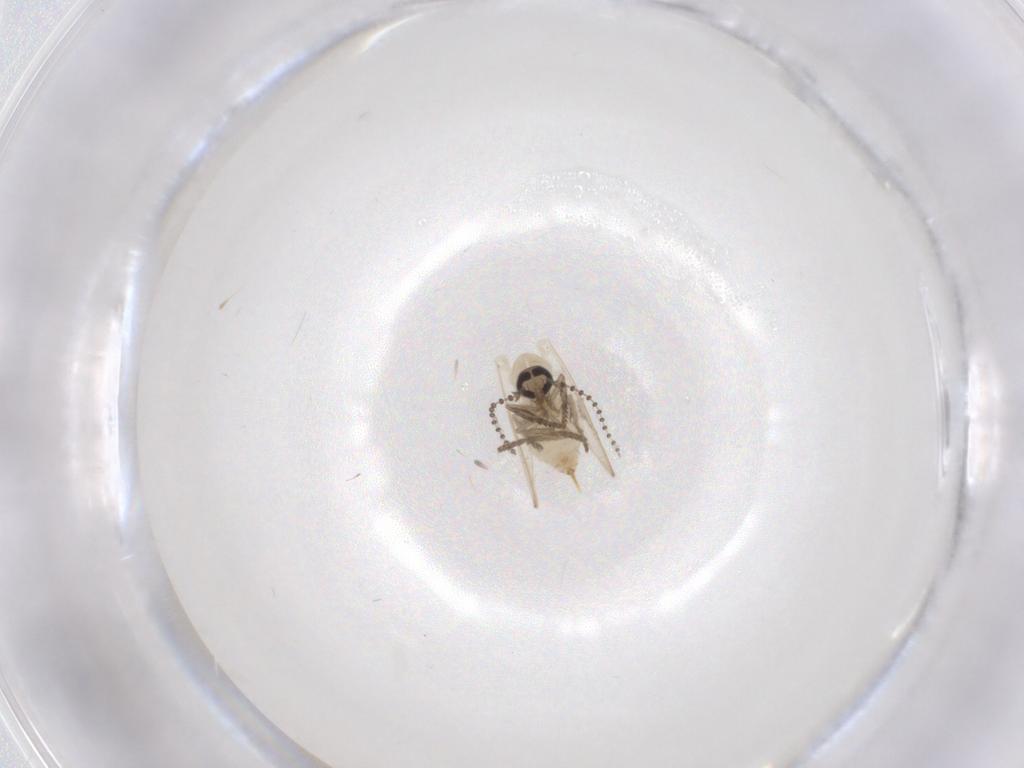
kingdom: Animalia
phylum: Arthropoda
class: Insecta
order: Diptera
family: Psychodidae
